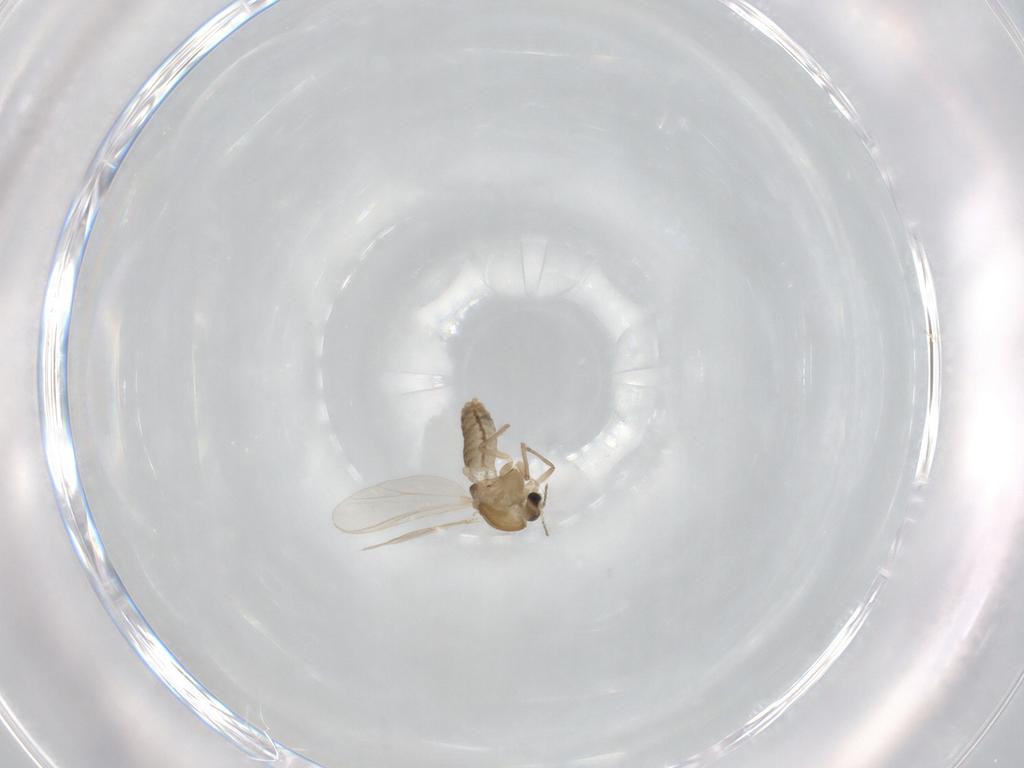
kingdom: Animalia
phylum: Arthropoda
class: Insecta
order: Diptera
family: Chironomidae
